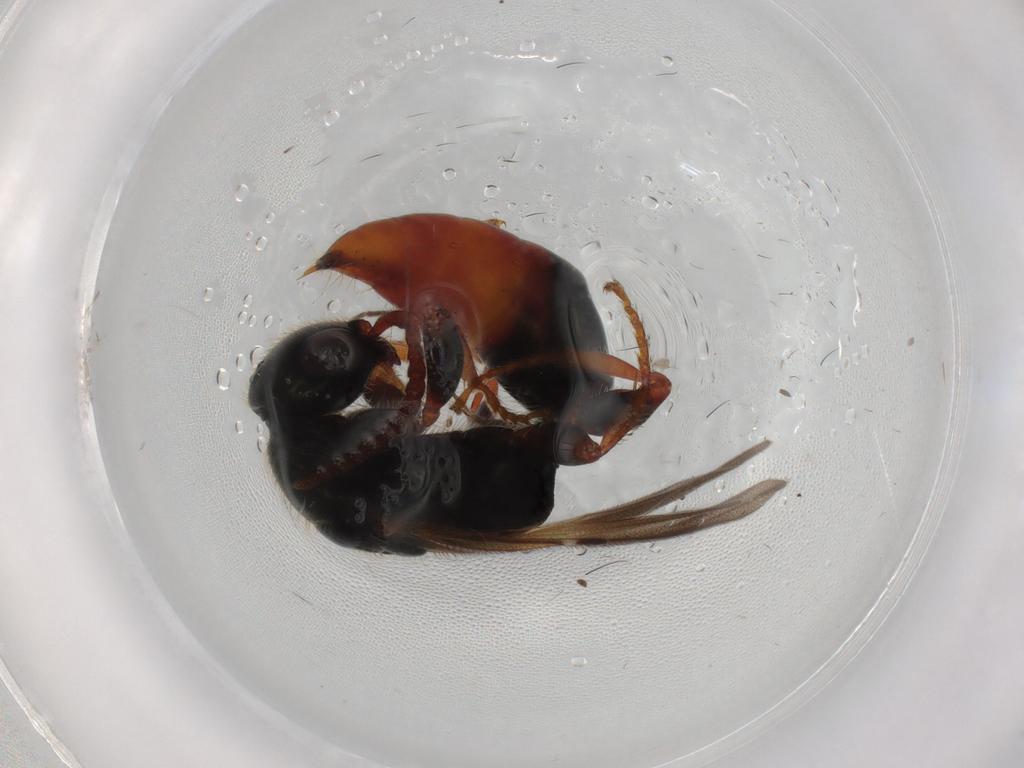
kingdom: Animalia
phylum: Arthropoda
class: Insecta
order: Hymenoptera
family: Bethylidae
